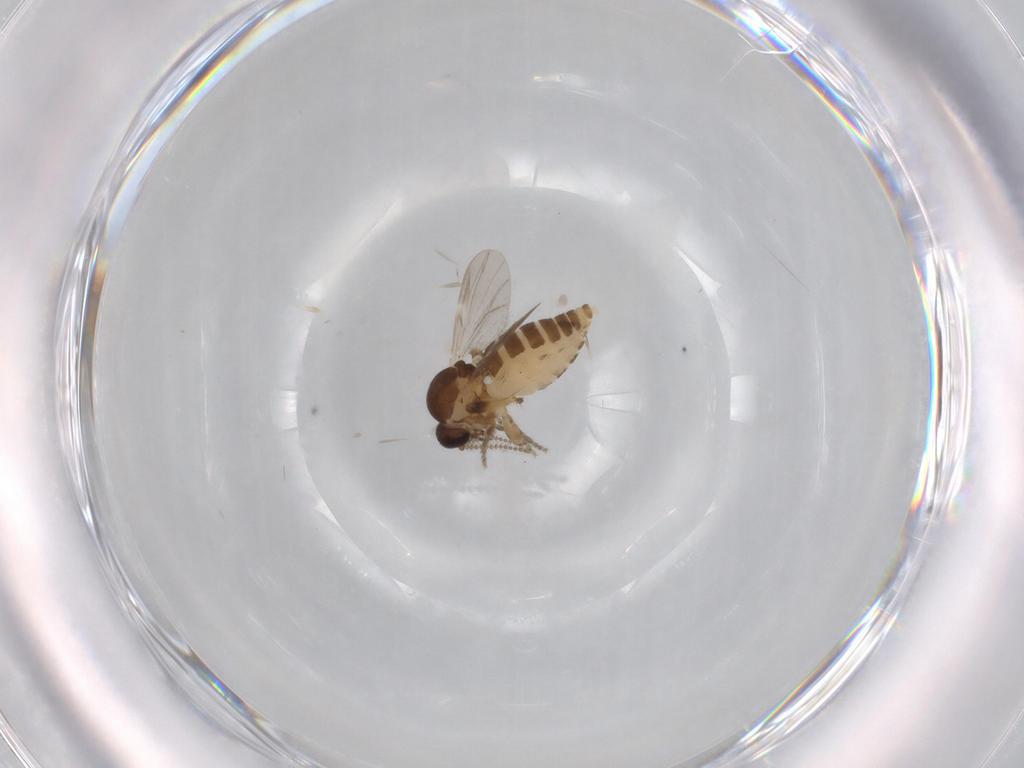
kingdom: Animalia
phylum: Arthropoda
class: Insecta
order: Diptera
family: Ceratopogonidae
